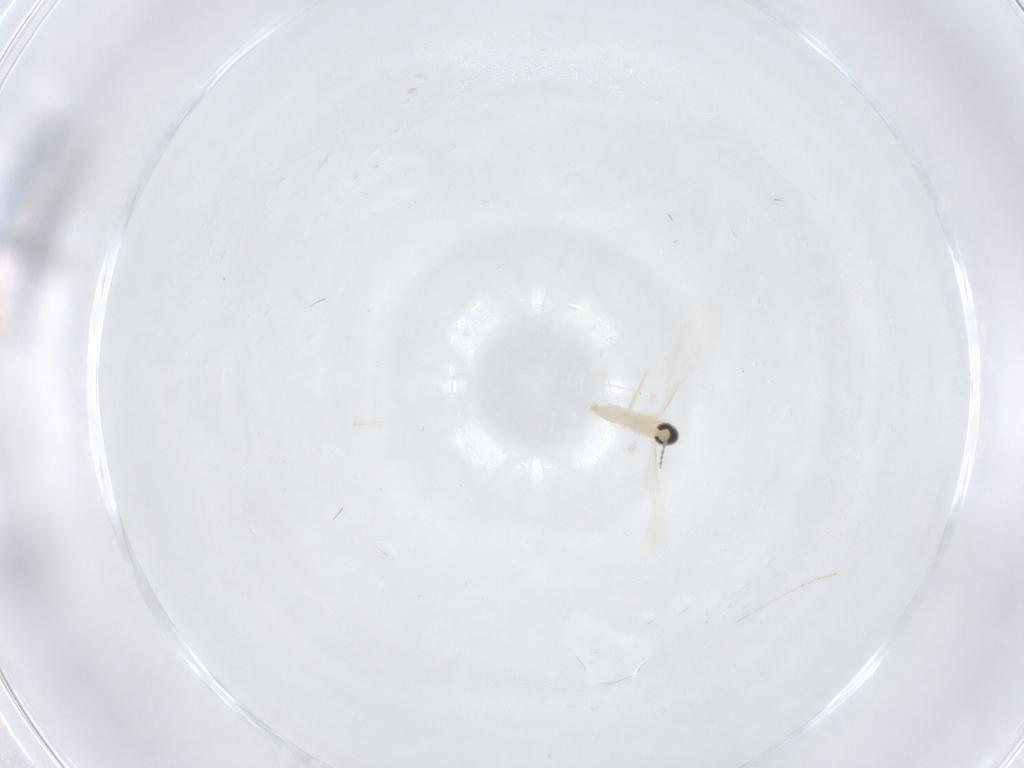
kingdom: Animalia
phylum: Arthropoda
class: Insecta
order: Diptera
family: Cecidomyiidae
